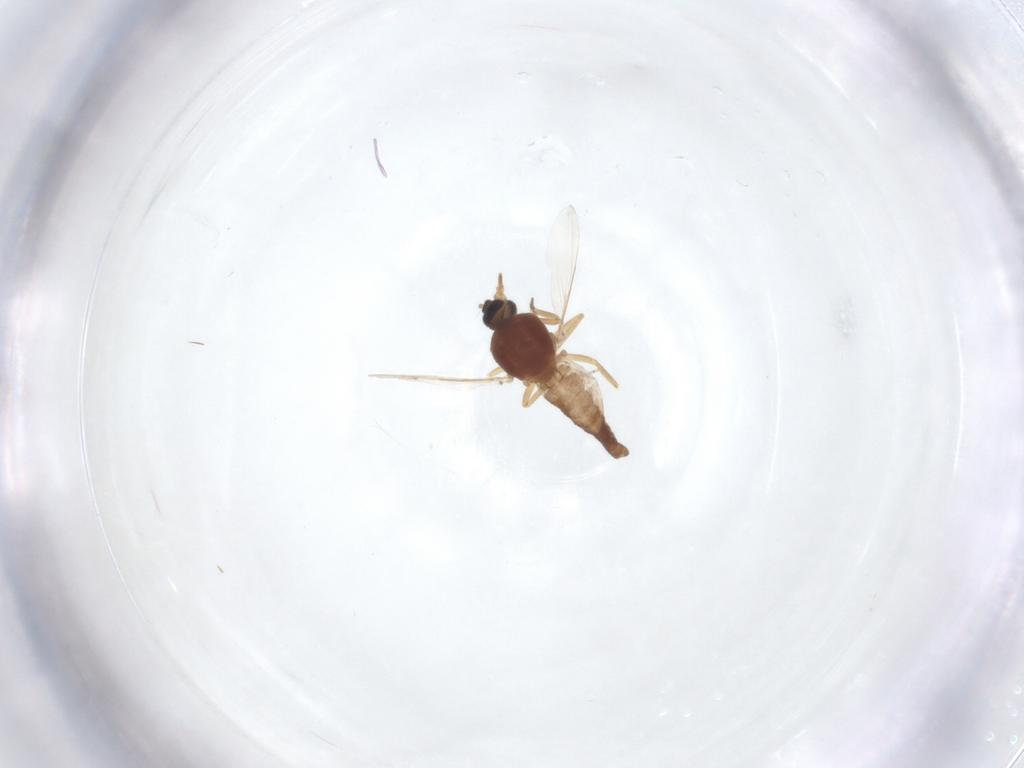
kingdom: Animalia
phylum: Arthropoda
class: Insecta
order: Diptera
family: Ceratopogonidae
